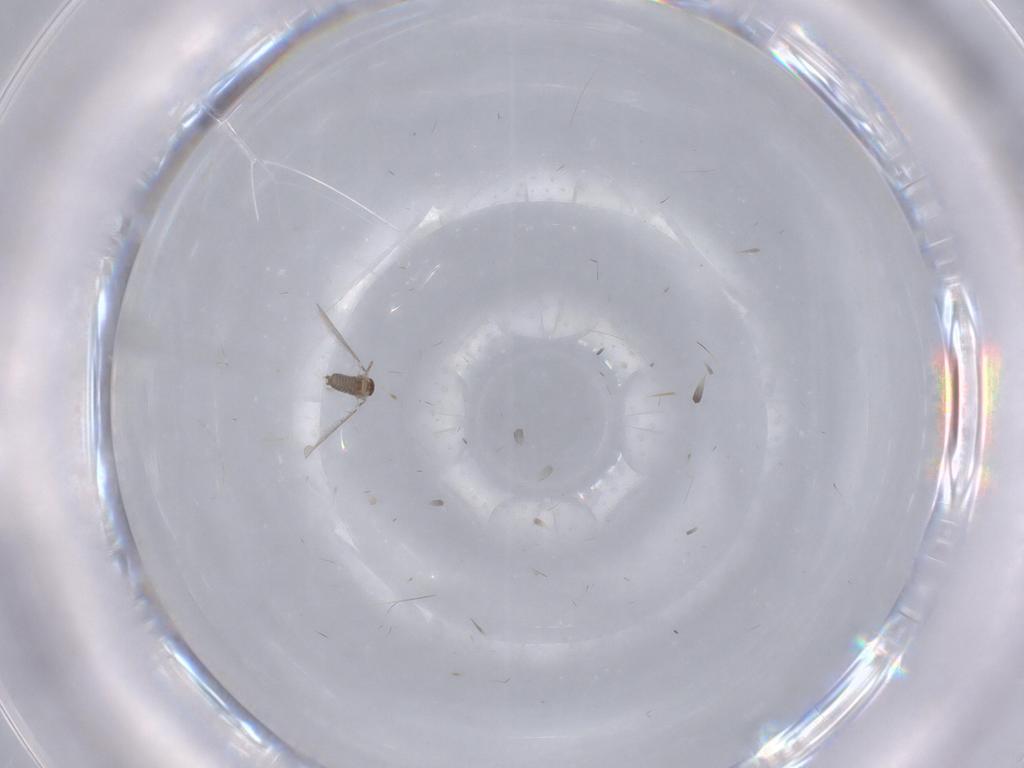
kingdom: Animalia
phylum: Arthropoda
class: Insecta
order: Diptera
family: Cecidomyiidae
